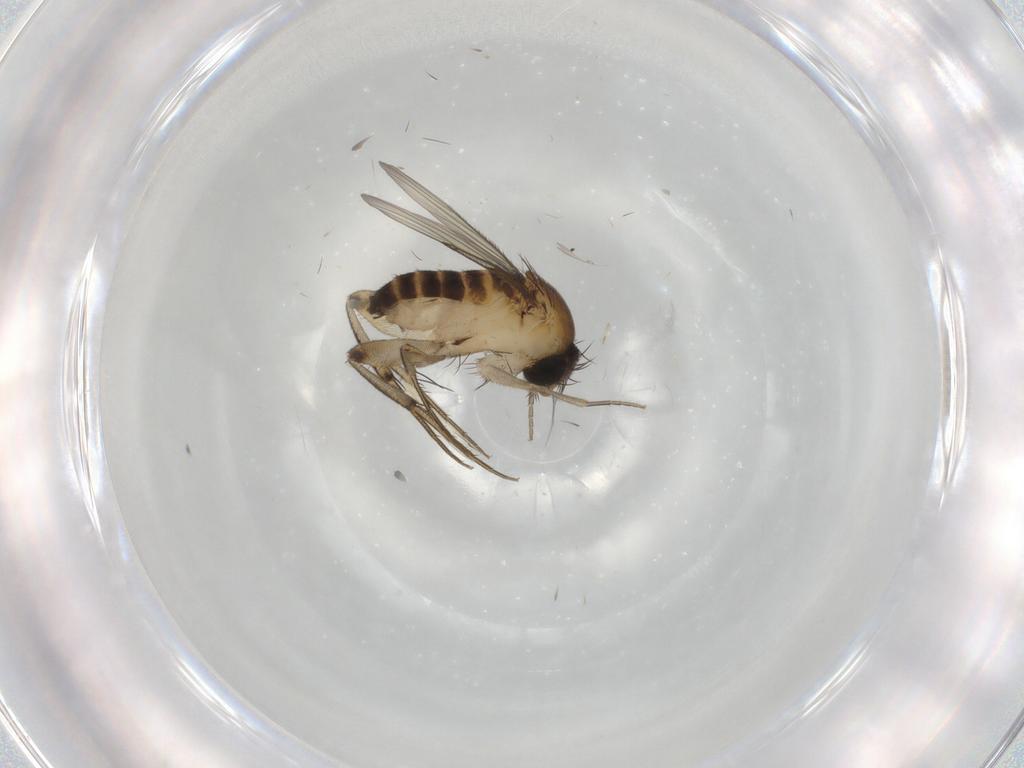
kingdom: Animalia
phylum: Arthropoda
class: Insecta
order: Diptera
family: Phoridae
